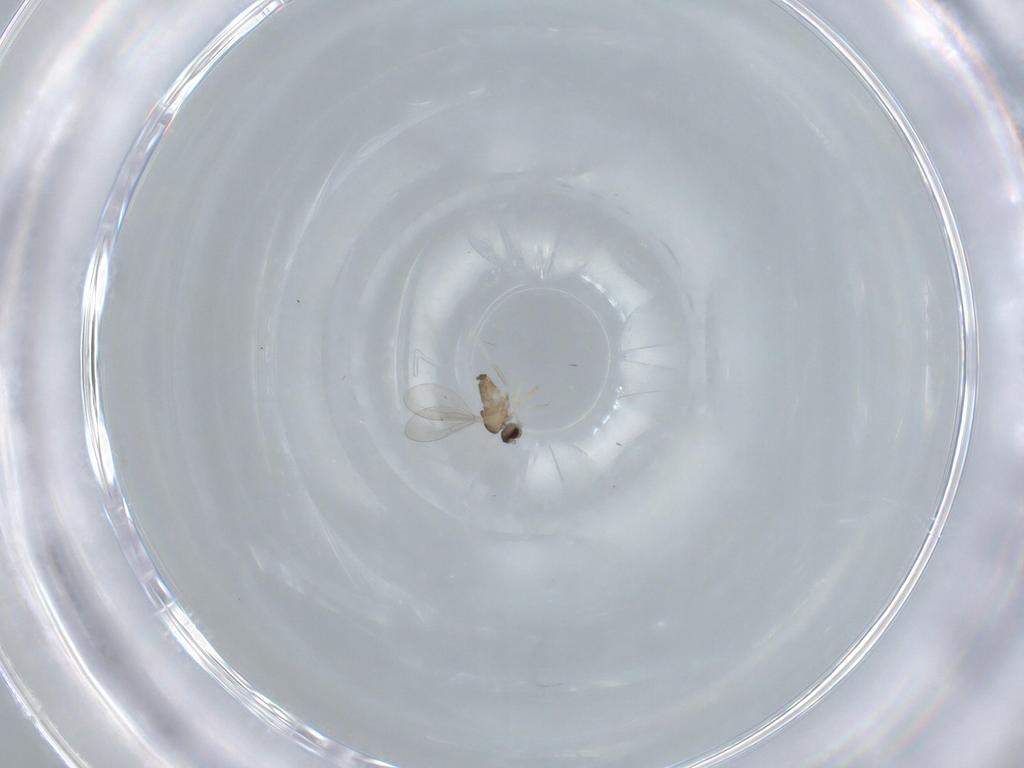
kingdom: Animalia
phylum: Arthropoda
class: Insecta
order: Diptera
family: Cecidomyiidae
